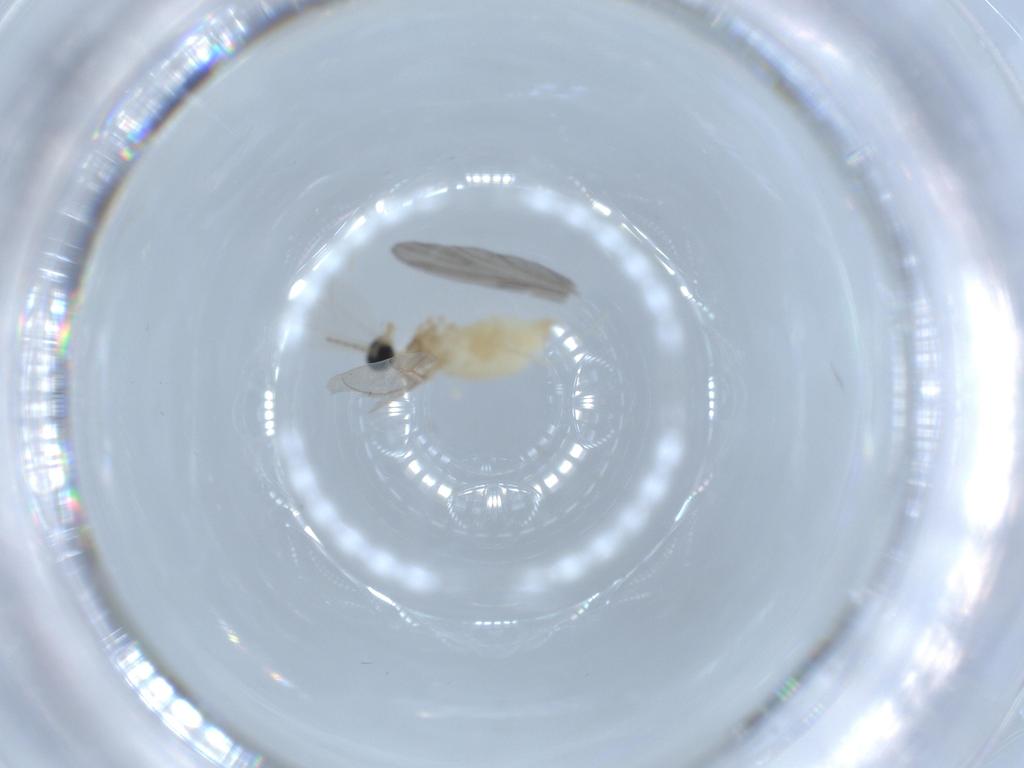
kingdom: Animalia
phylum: Arthropoda
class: Insecta
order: Diptera
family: Cecidomyiidae
